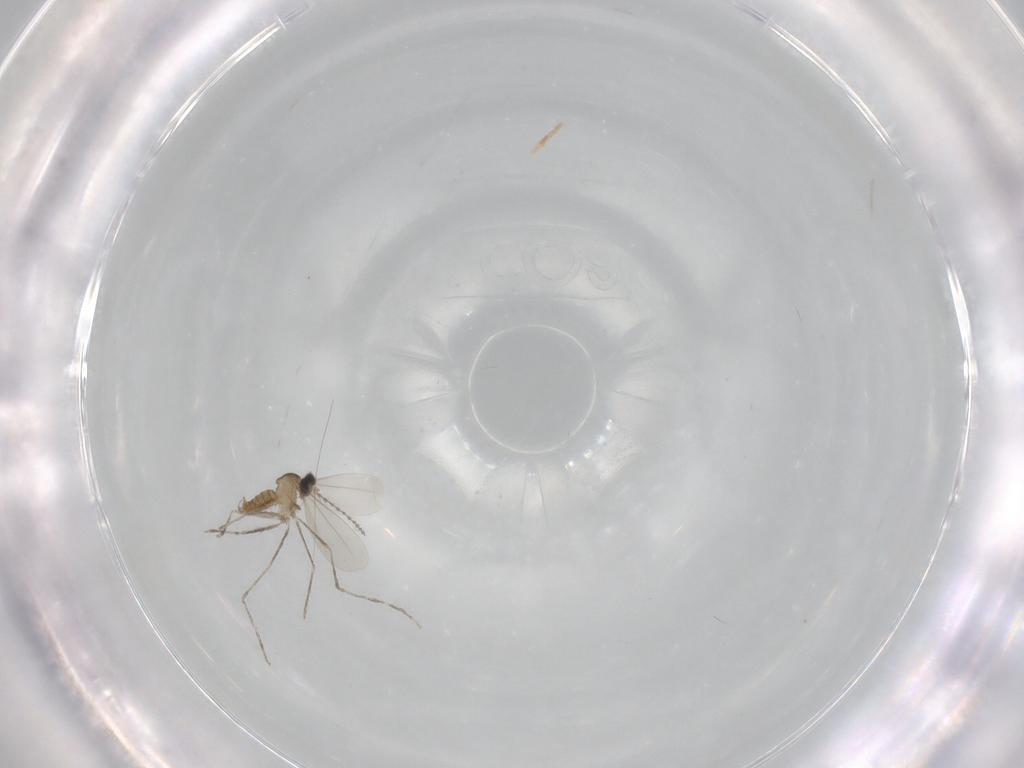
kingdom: Animalia
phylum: Arthropoda
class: Insecta
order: Diptera
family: Cecidomyiidae
